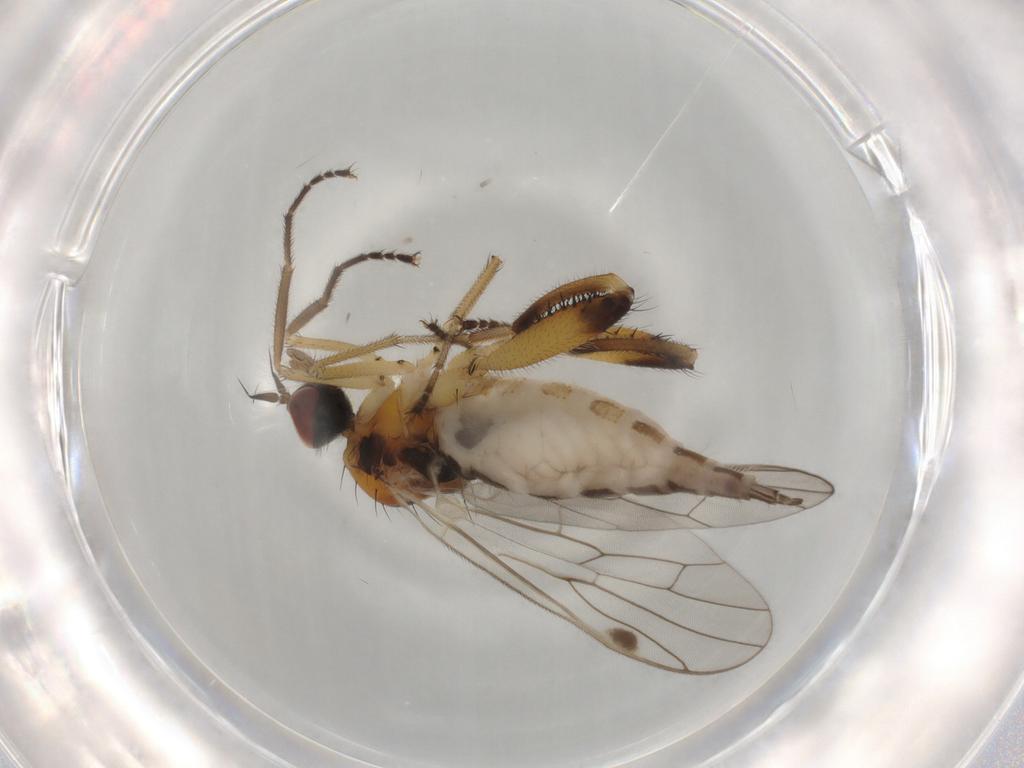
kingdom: Animalia
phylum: Arthropoda
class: Insecta
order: Diptera
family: Hybotidae
